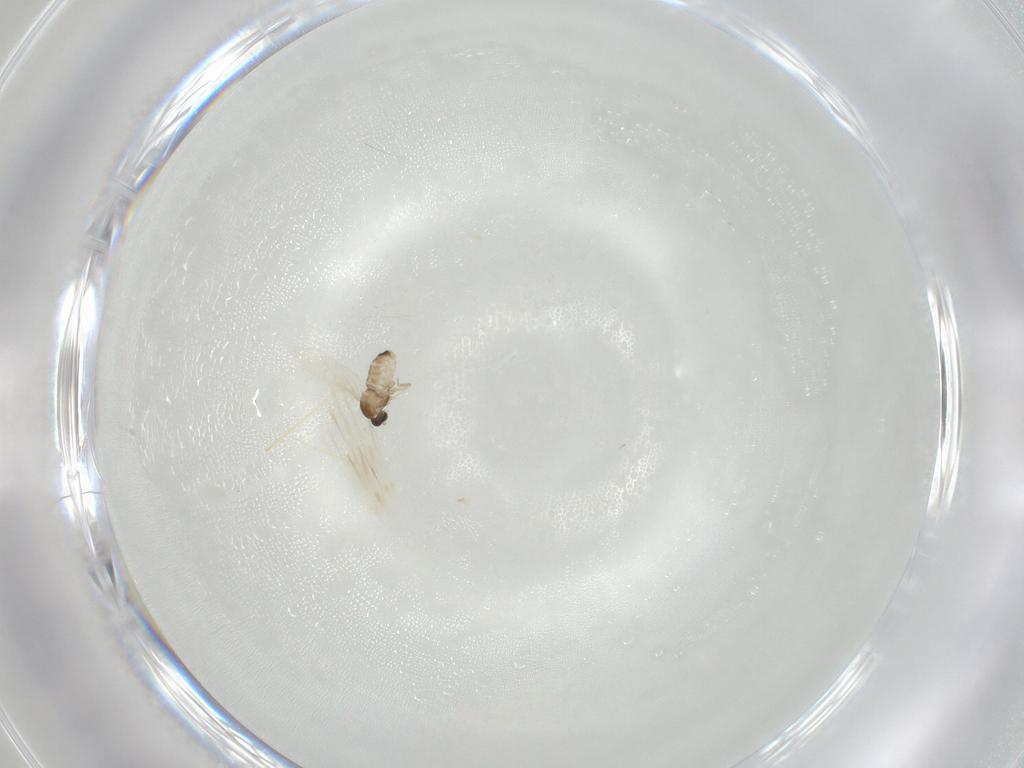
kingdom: Animalia
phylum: Arthropoda
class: Insecta
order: Diptera
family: Cecidomyiidae
